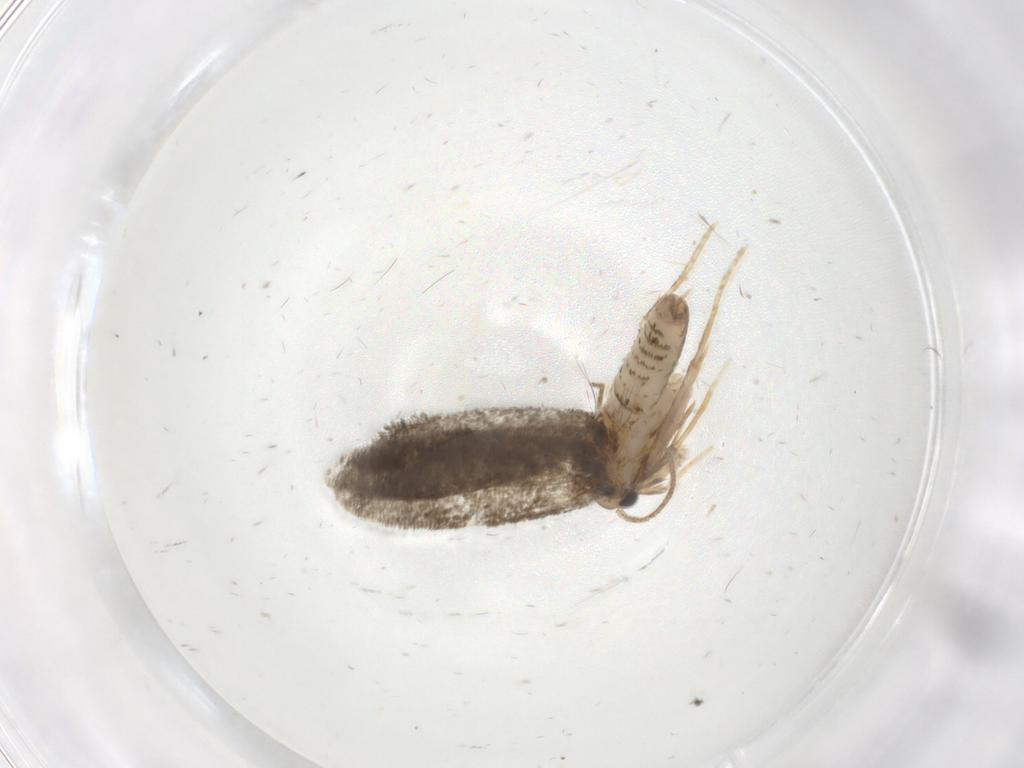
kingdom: Animalia
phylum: Arthropoda
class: Insecta
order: Lepidoptera
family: Psychidae
